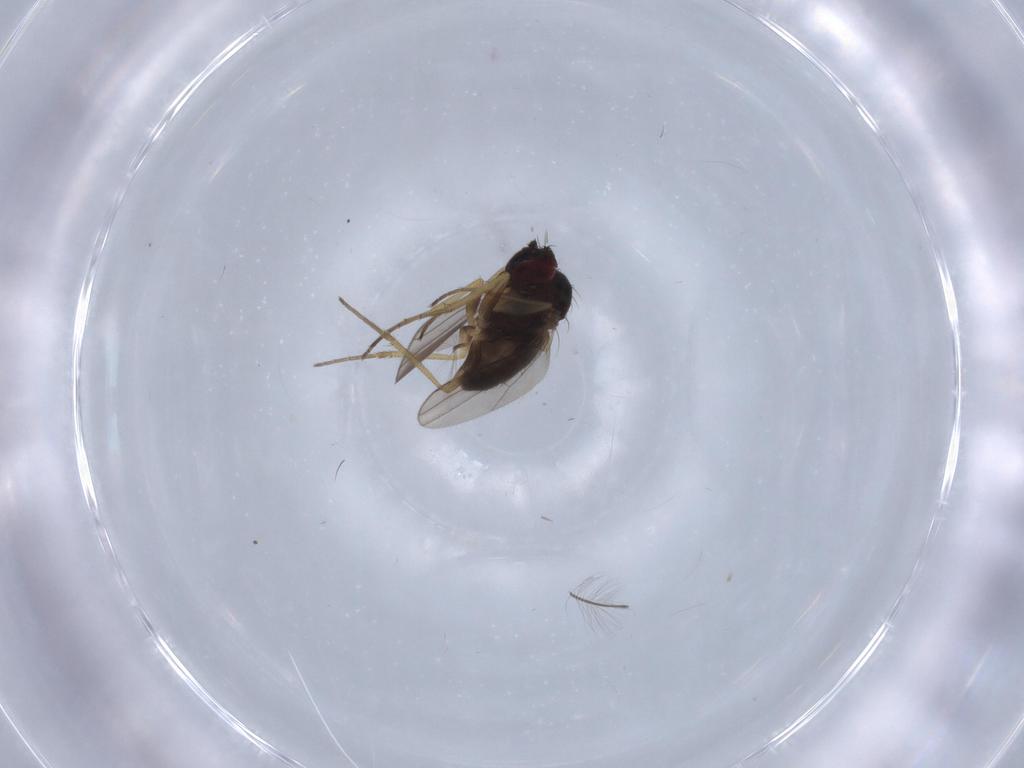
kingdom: Animalia
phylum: Arthropoda
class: Insecta
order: Diptera
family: Dolichopodidae
